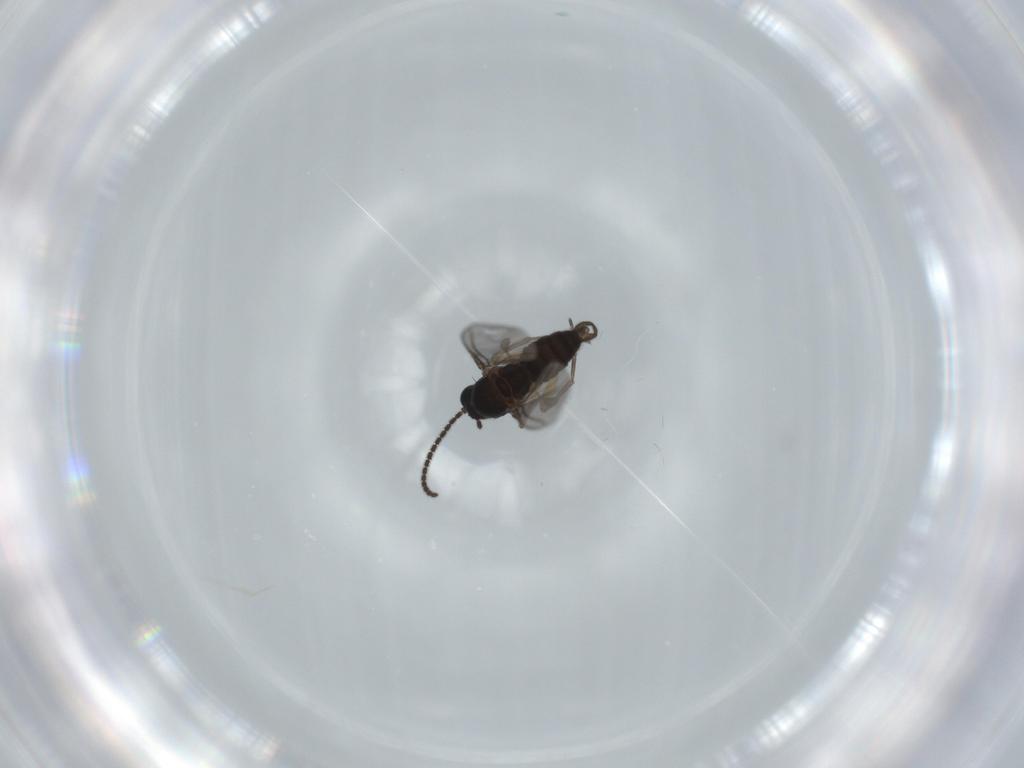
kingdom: Animalia
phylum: Arthropoda
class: Insecta
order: Diptera
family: Sciaridae
